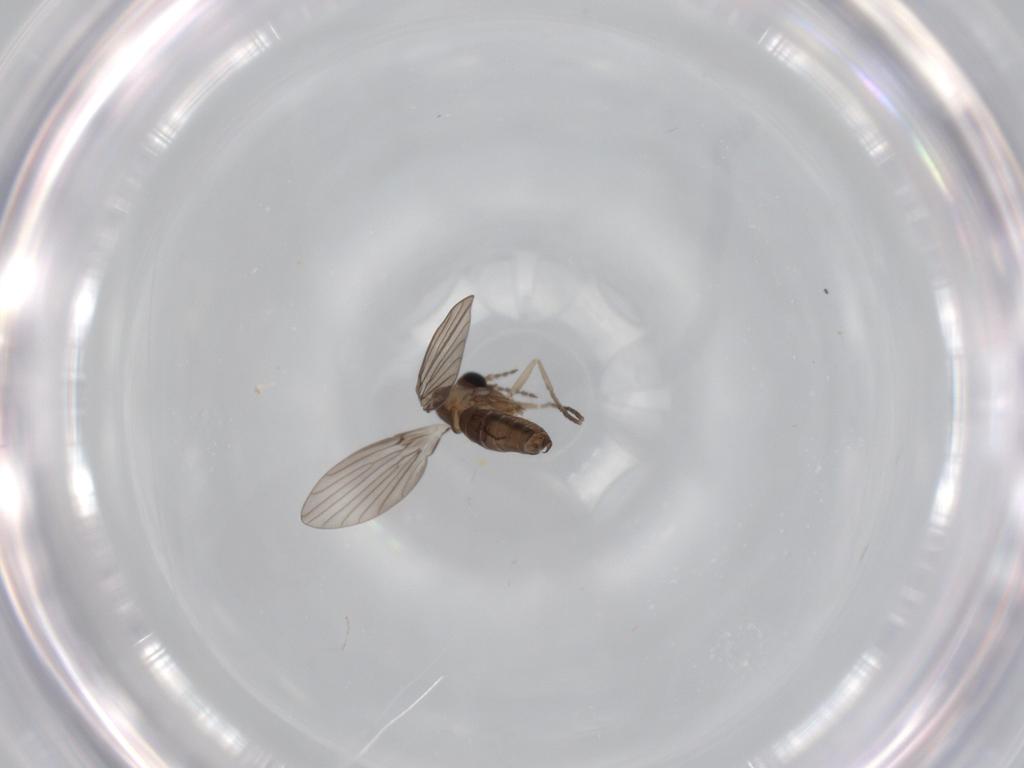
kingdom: Animalia
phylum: Arthropoda
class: Insecta
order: Diptera
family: Psychodidae
